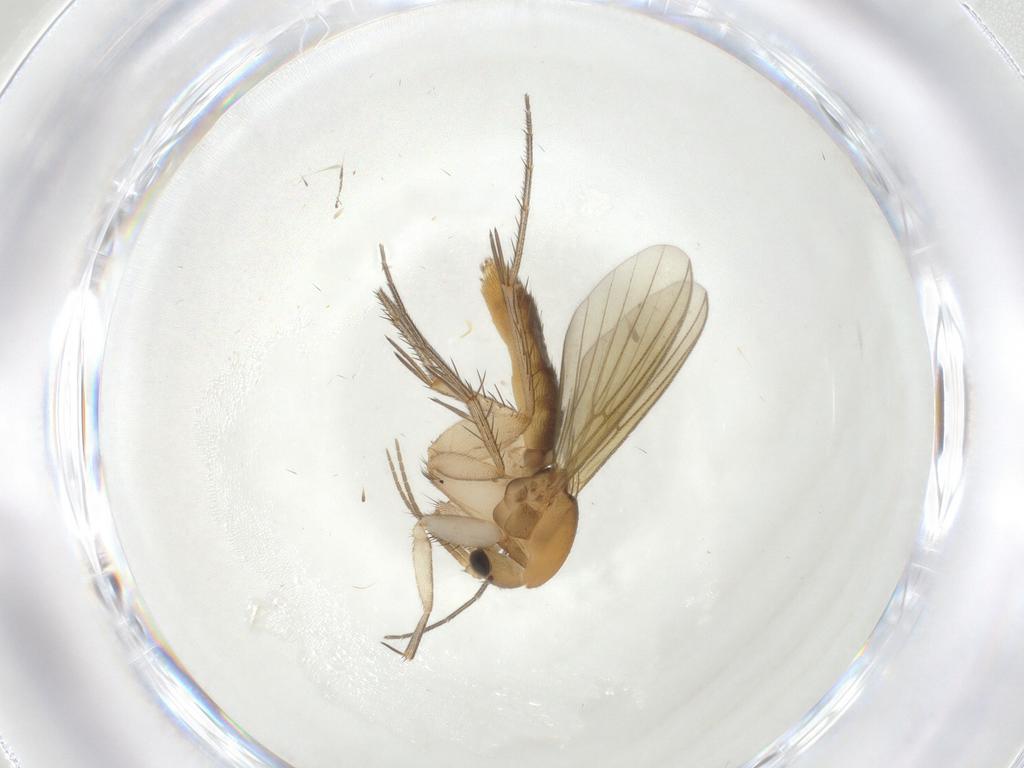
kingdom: Animalia
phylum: Arthropoda
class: Insecta
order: Diptera
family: Mycetophilidae
